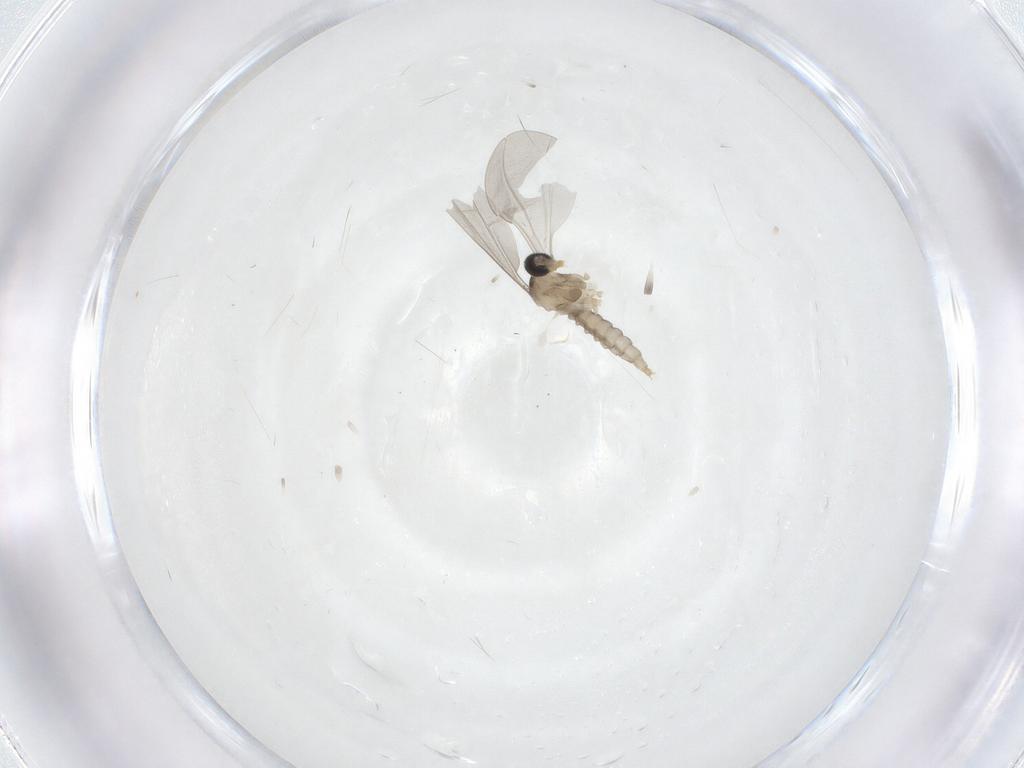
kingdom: Animalia
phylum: Arthropoda
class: Insecta
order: Diptera
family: Cecidomyiidae
